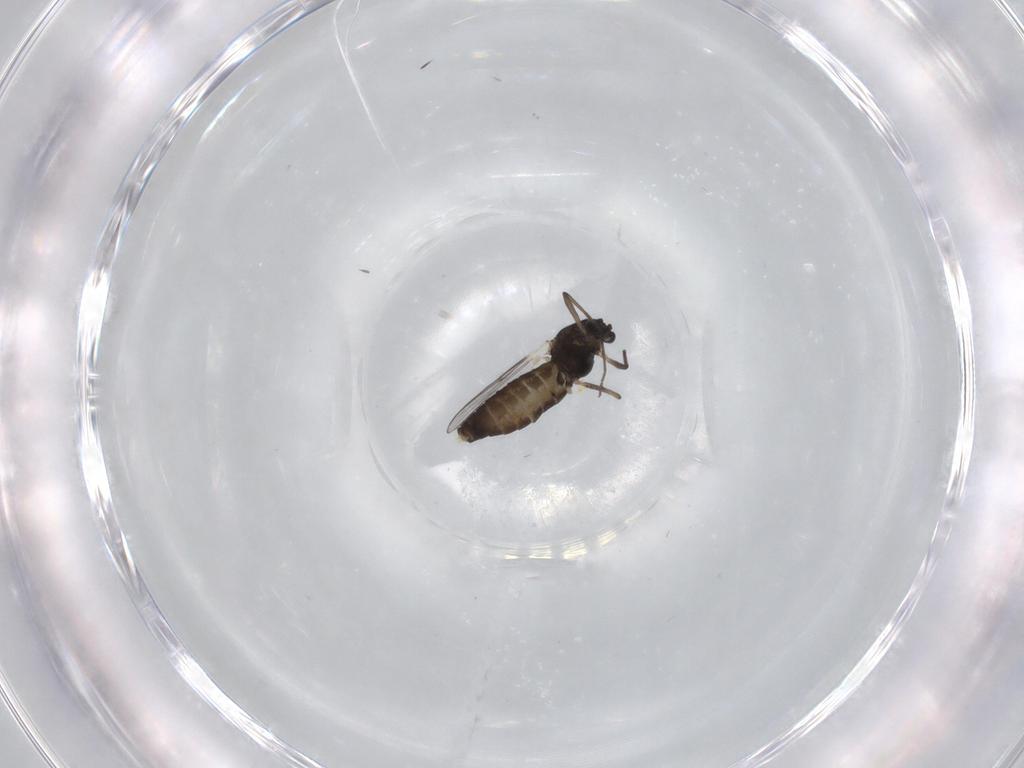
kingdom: Animalia
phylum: Arthropoda
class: Insecta
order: Diptera
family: Chironomidae
